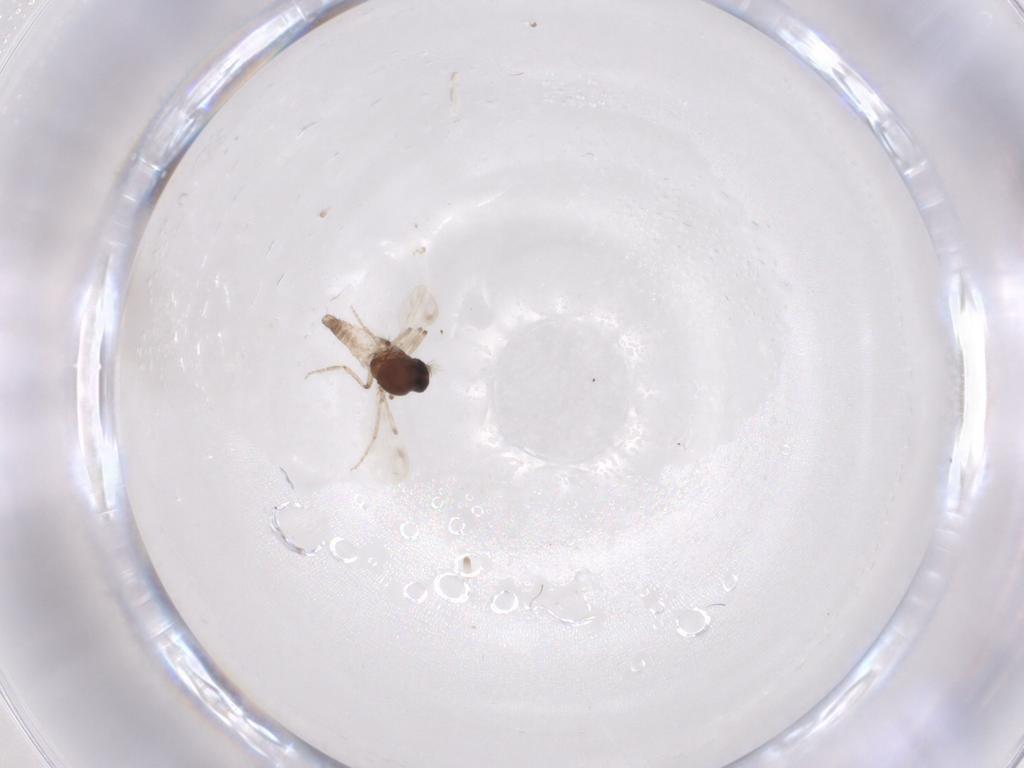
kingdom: Animalia
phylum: Arthropoda
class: Insecta
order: Diptera
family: Ceratopogonidae
